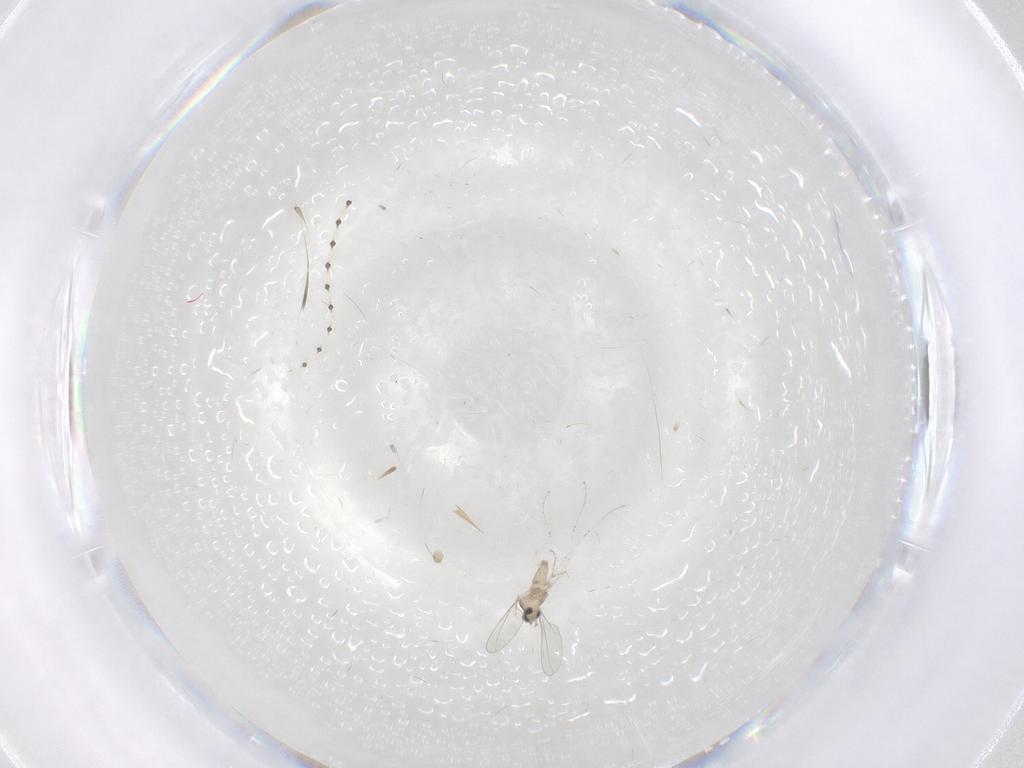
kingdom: Animalia
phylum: Arthropoda
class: Insecta
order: Diptera
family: Cecidomyiidae
